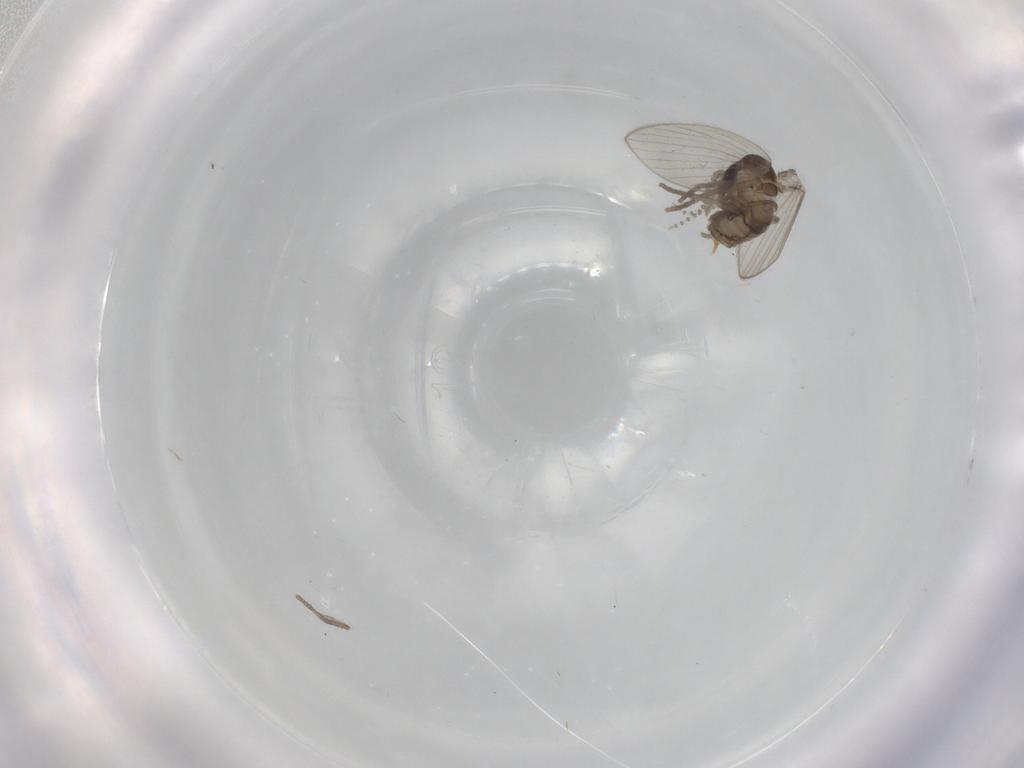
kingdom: Animalia
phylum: Arthropoda
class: Insecta
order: Diptera
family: Psychodidae
